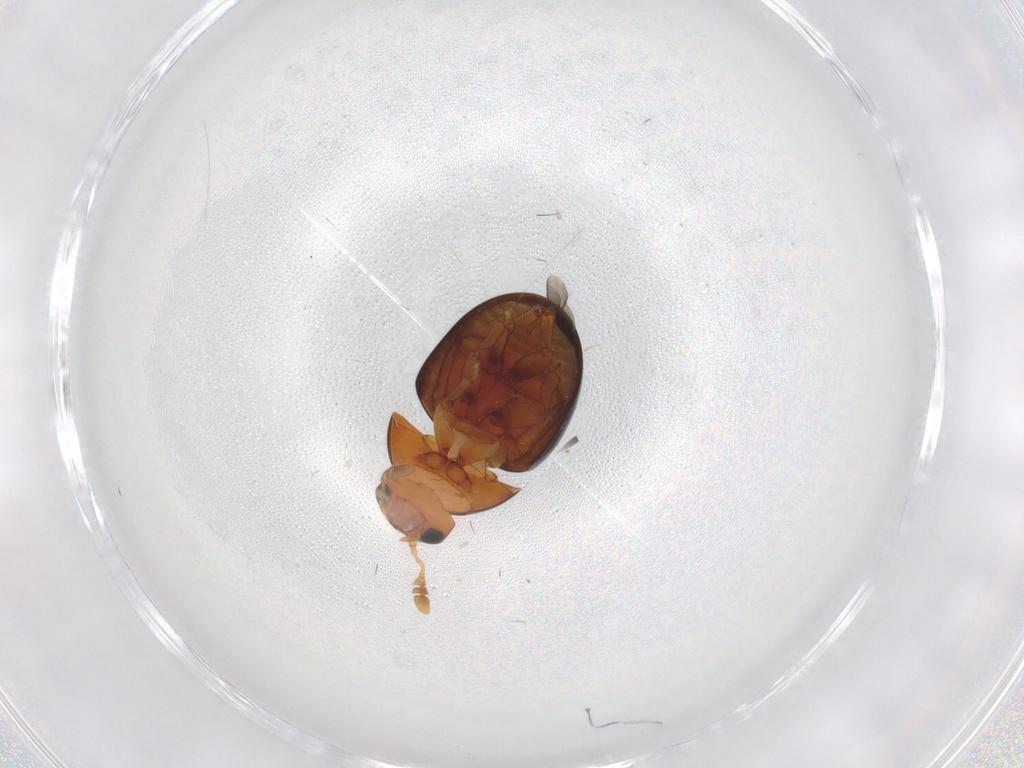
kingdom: Animalia
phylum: Arthropoda
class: Insecta
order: Coleoptera
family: Phalacridae
